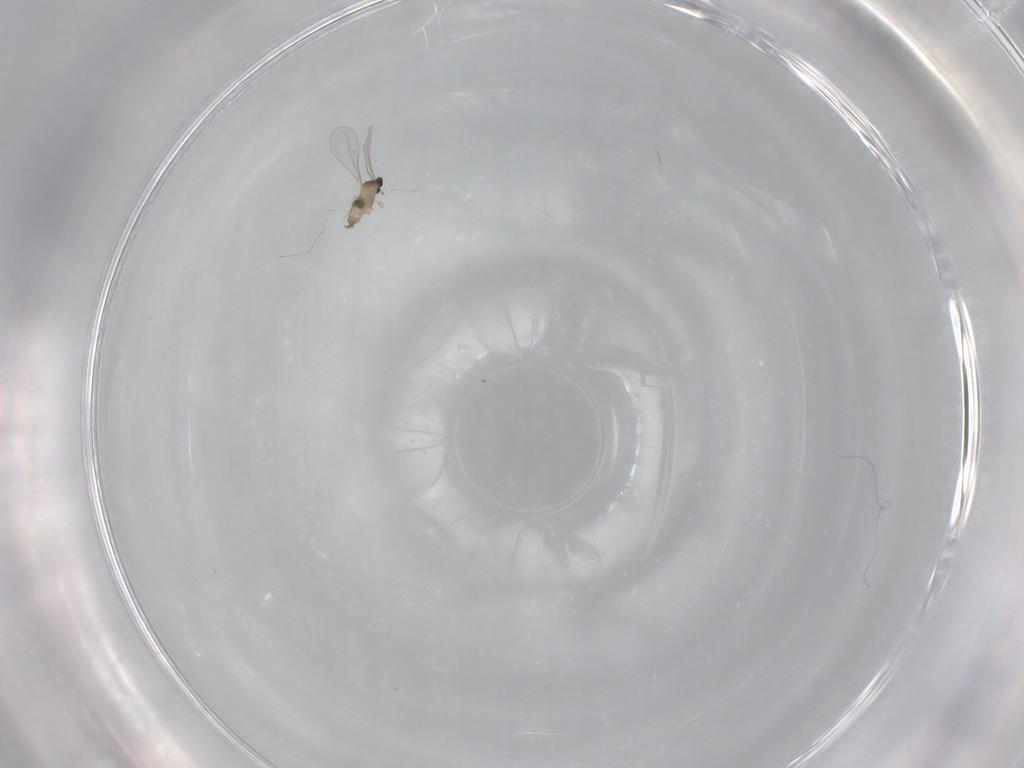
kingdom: Animalia
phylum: Arthropoda
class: Insecta
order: Diptera
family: Cecidomyiidae
